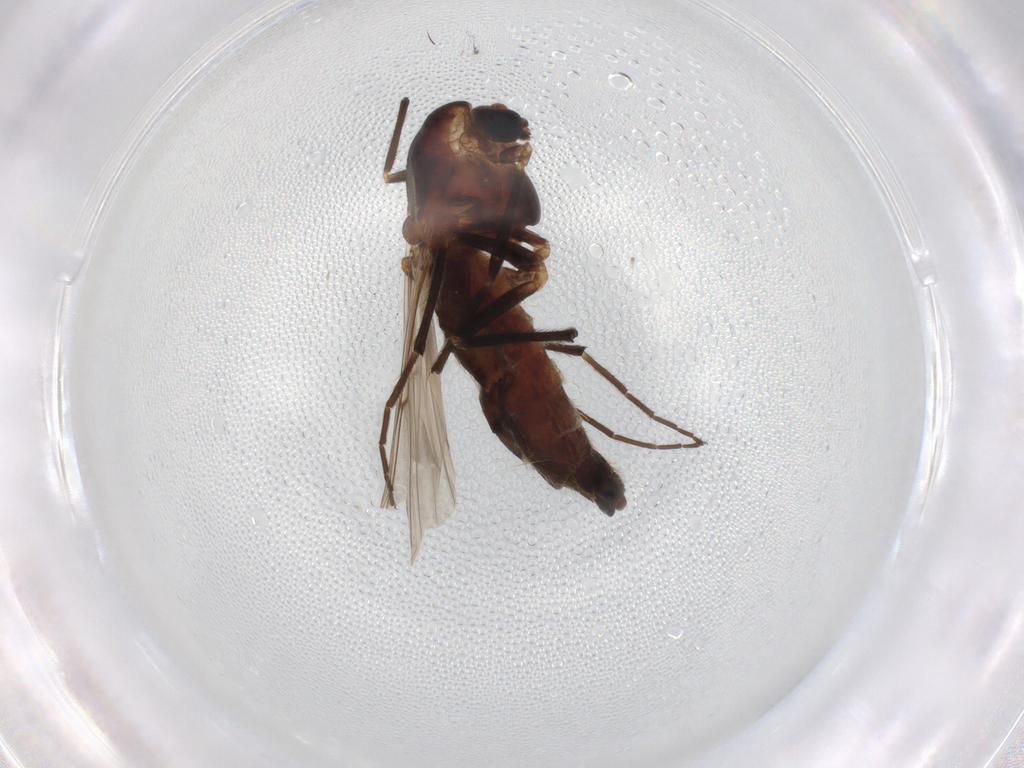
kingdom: Animalia
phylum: Arthropoda
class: Insecta
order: Diptera
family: Chironomidae
